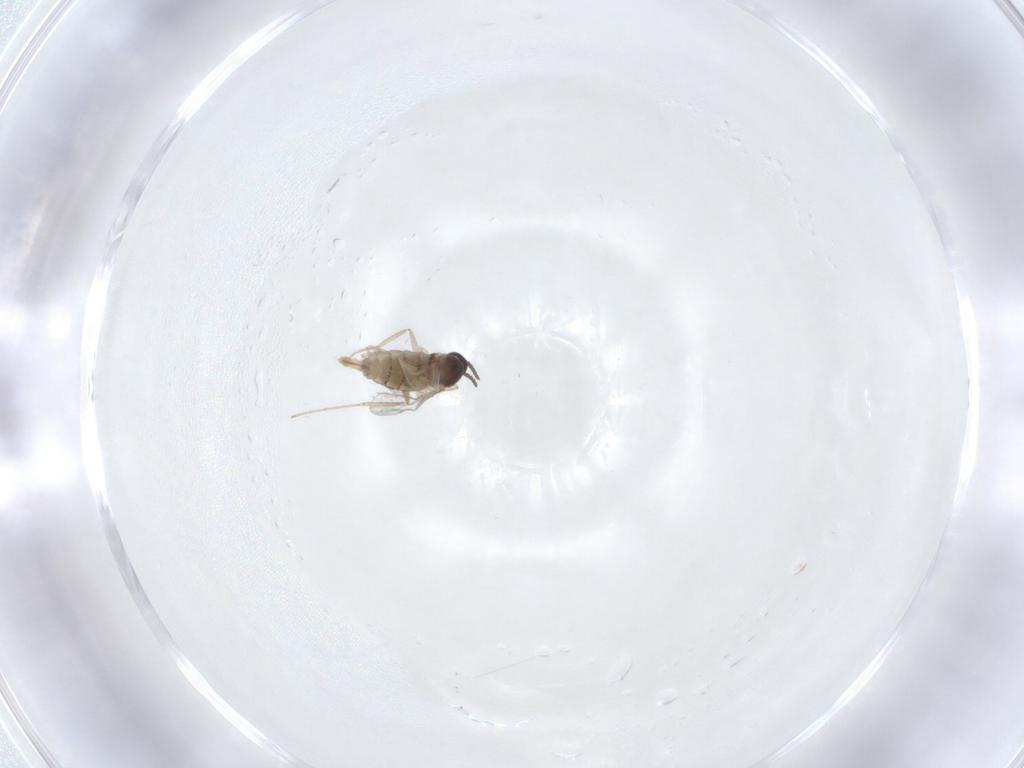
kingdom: Animalia
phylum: Arthropoda
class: Insecta
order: Diptera
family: Cecidomyiidae
